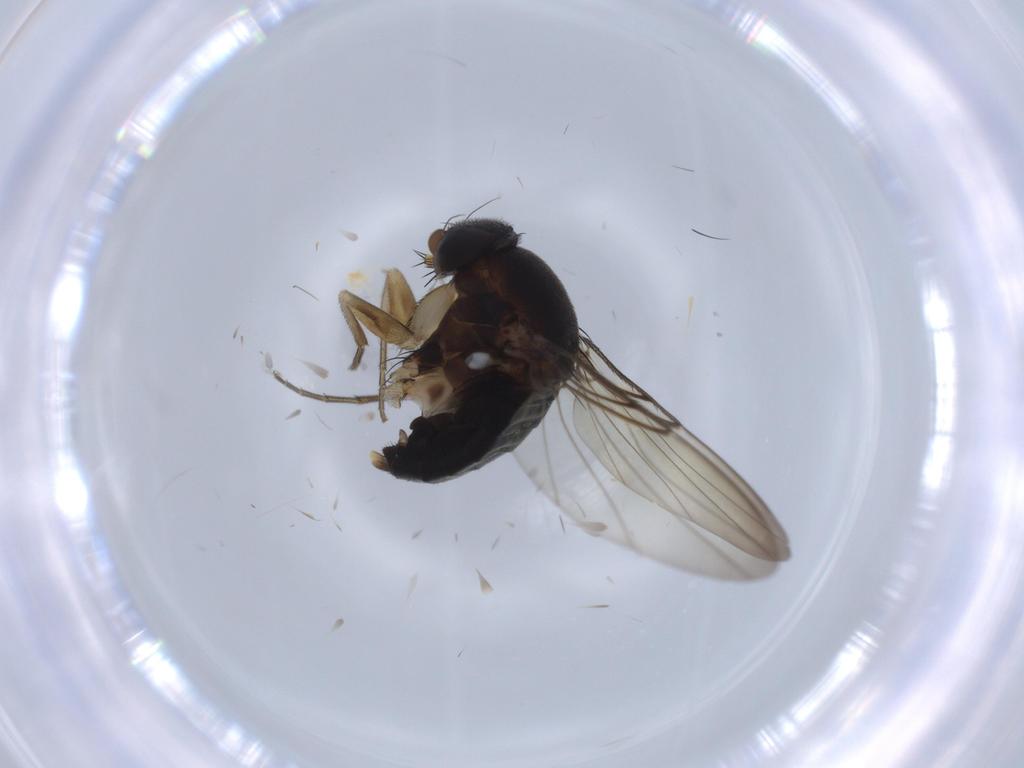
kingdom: Animalia
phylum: Arthropoda
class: Insecta
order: Diptera
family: Phoridae
